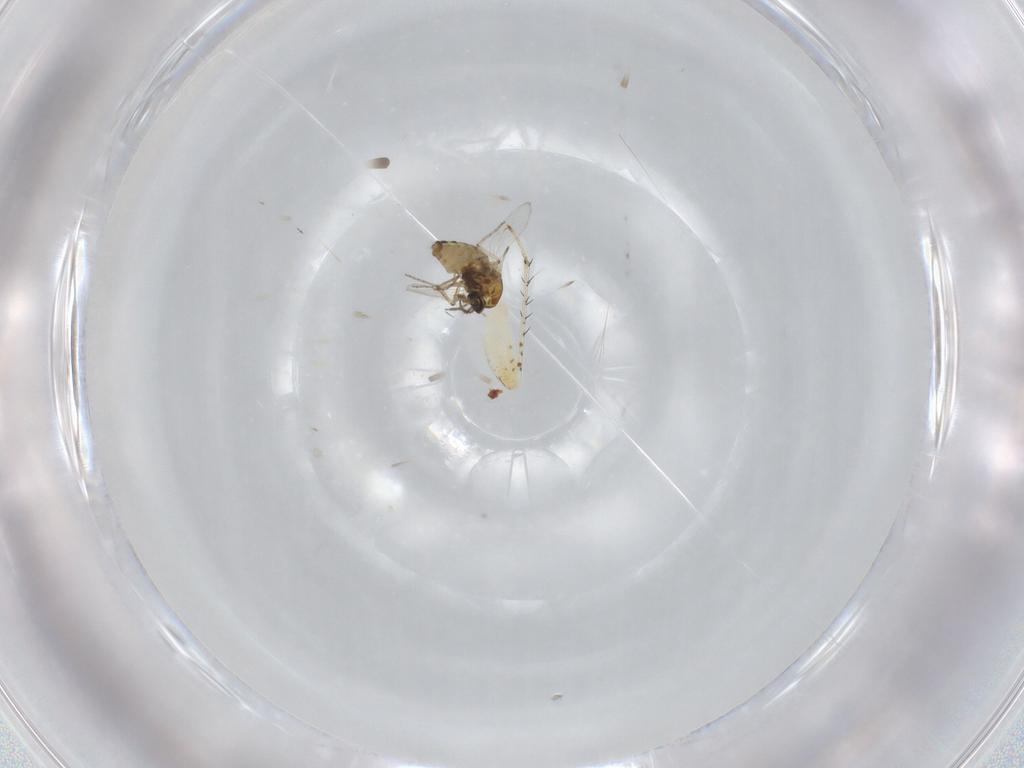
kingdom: Animalia
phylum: Arthropoda
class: Insecta
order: Diptera
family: Ceratopogonidae
